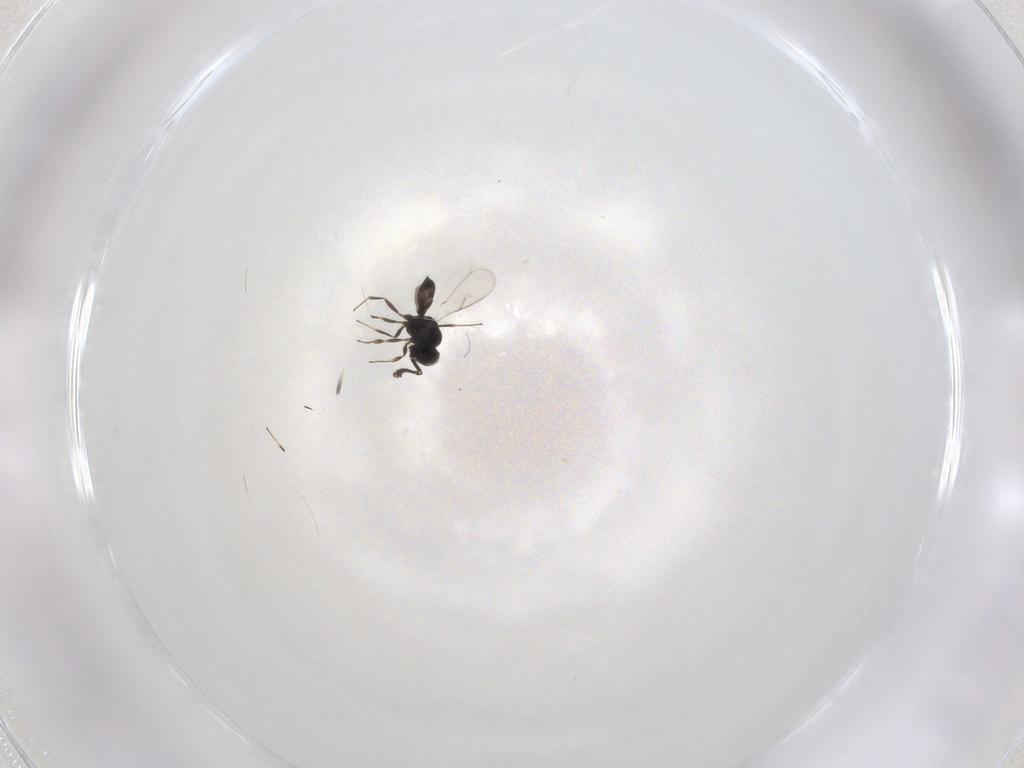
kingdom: Animalia
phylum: Arthropoda
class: Insecta
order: Hymenoptera
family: Scelionidae
